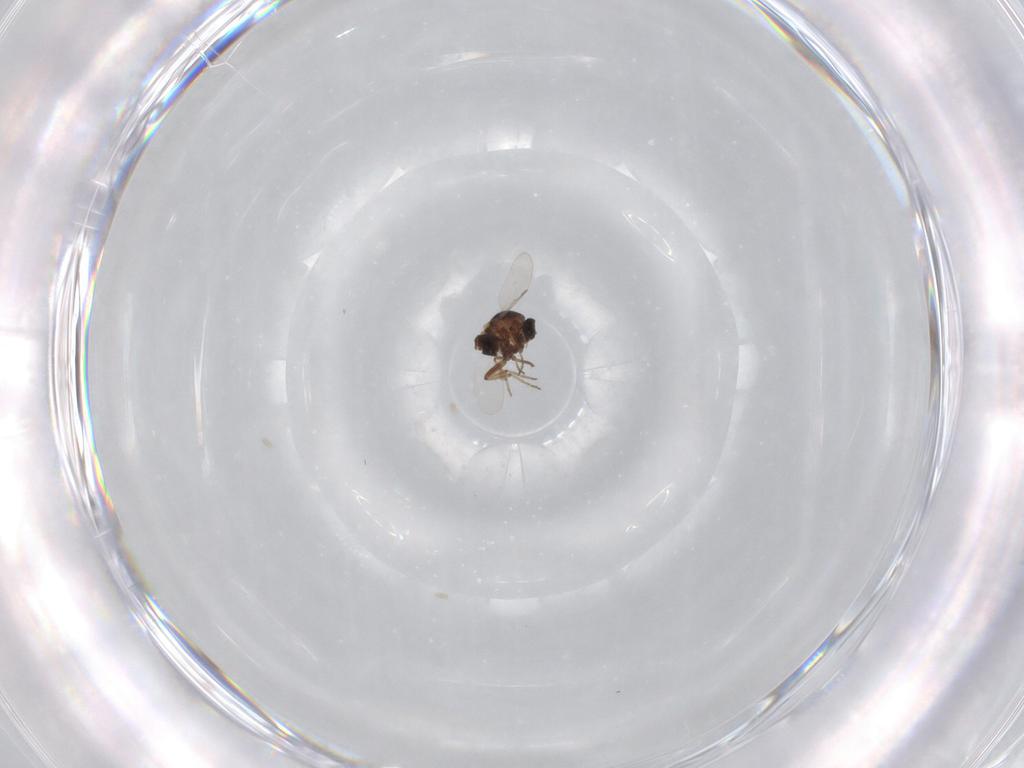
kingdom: Animalia
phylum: Arthropoda
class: Insecta
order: Diptera
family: Ceratopogonidae
